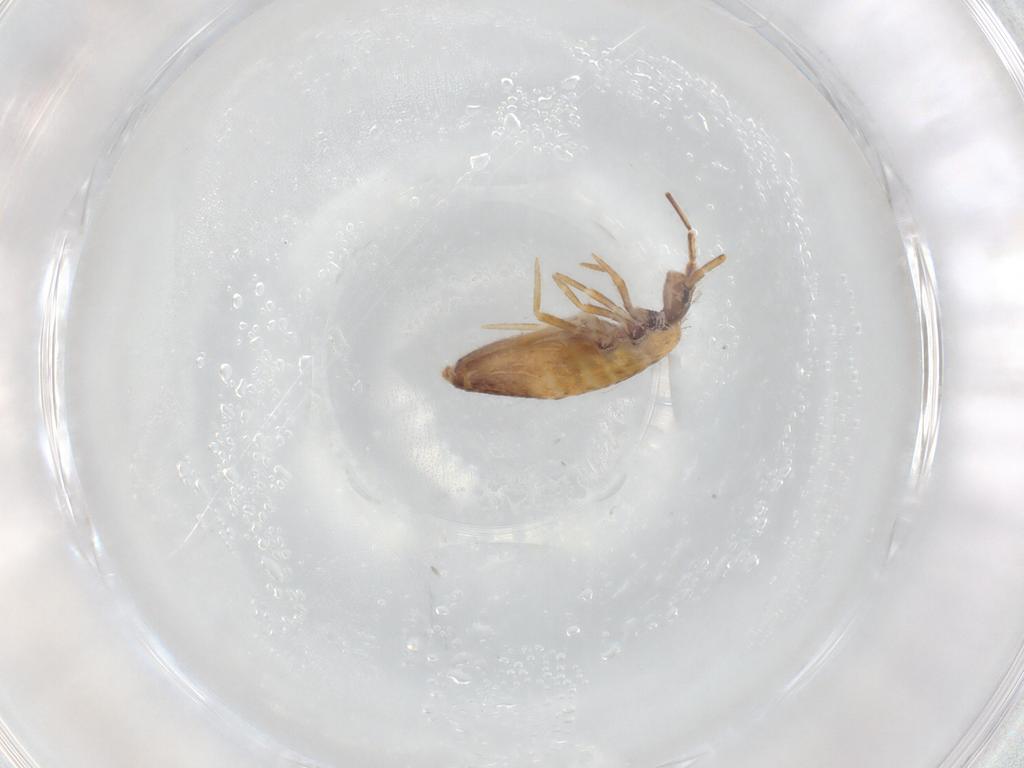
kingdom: Animalia
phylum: Arthropoda
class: Collembola
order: Entomobryomorpha
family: Entomobryidae
